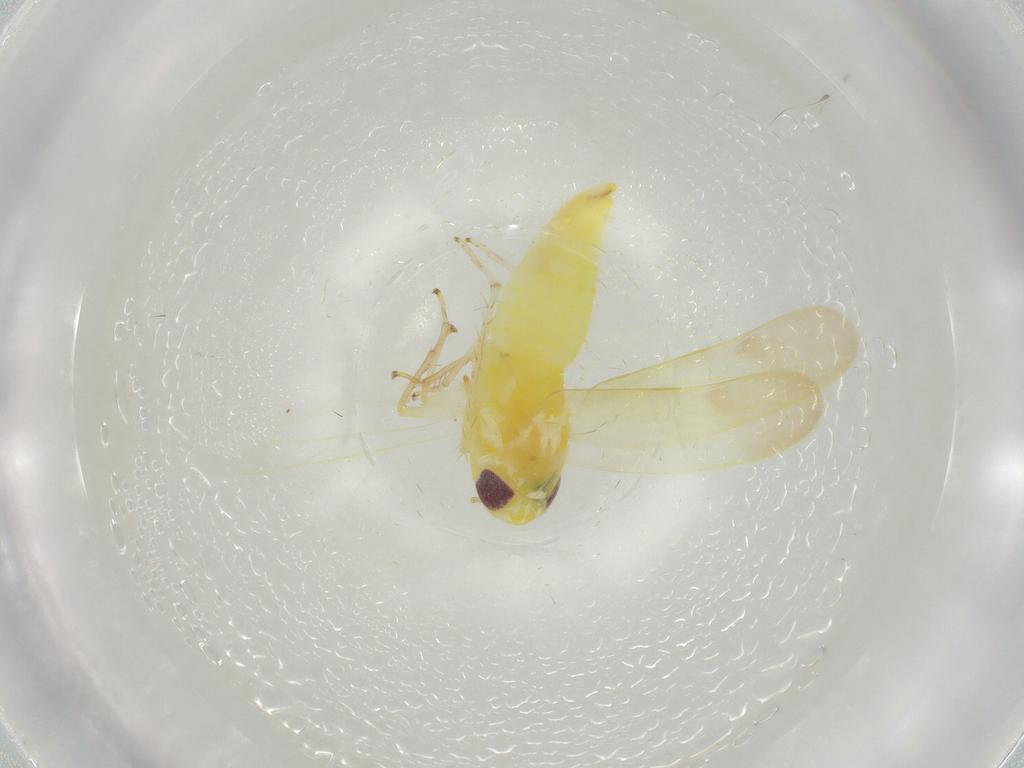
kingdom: Animalia
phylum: Arthropoda
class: Insecta
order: Hemiptera
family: Cicadellidae
